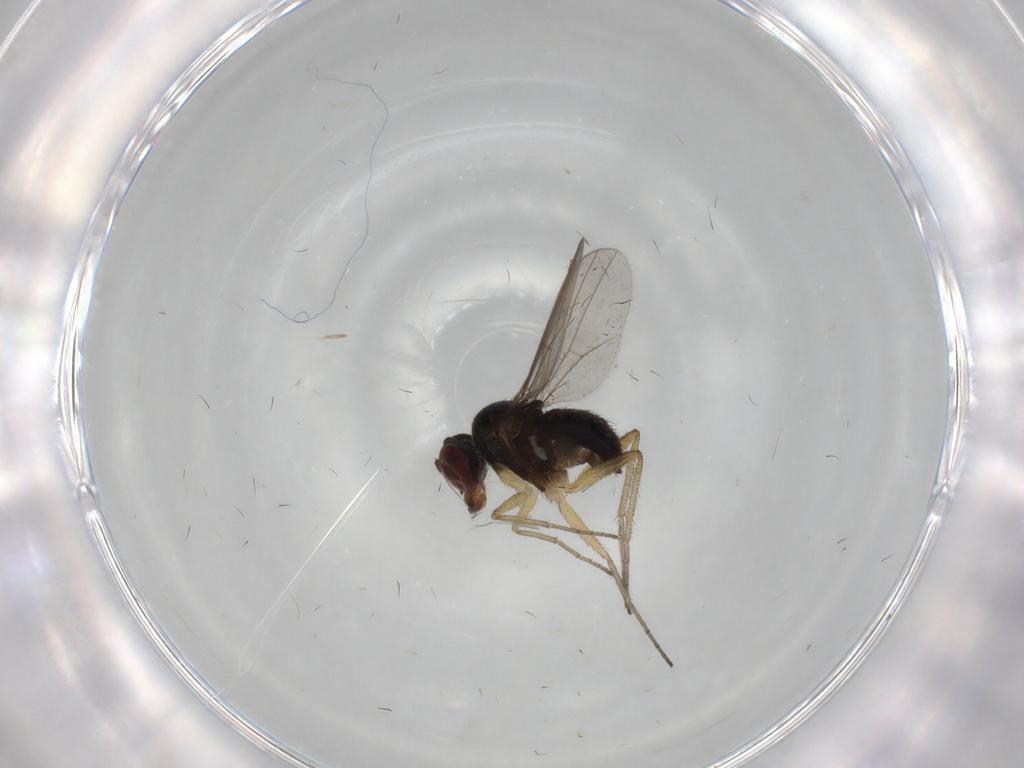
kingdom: Animalia
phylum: Arthropoda
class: Insecta
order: Diptera
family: Dolichopodidae
